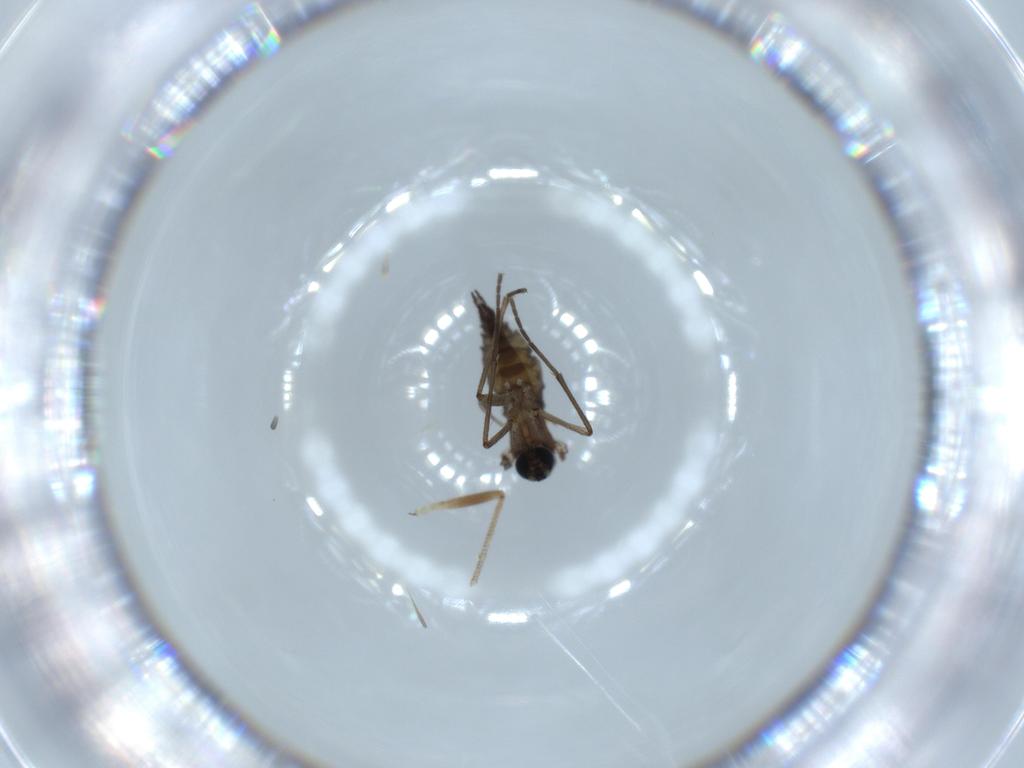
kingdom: Animalia
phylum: Arthropoda
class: Insecta
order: Diptera
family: Sciaridae
